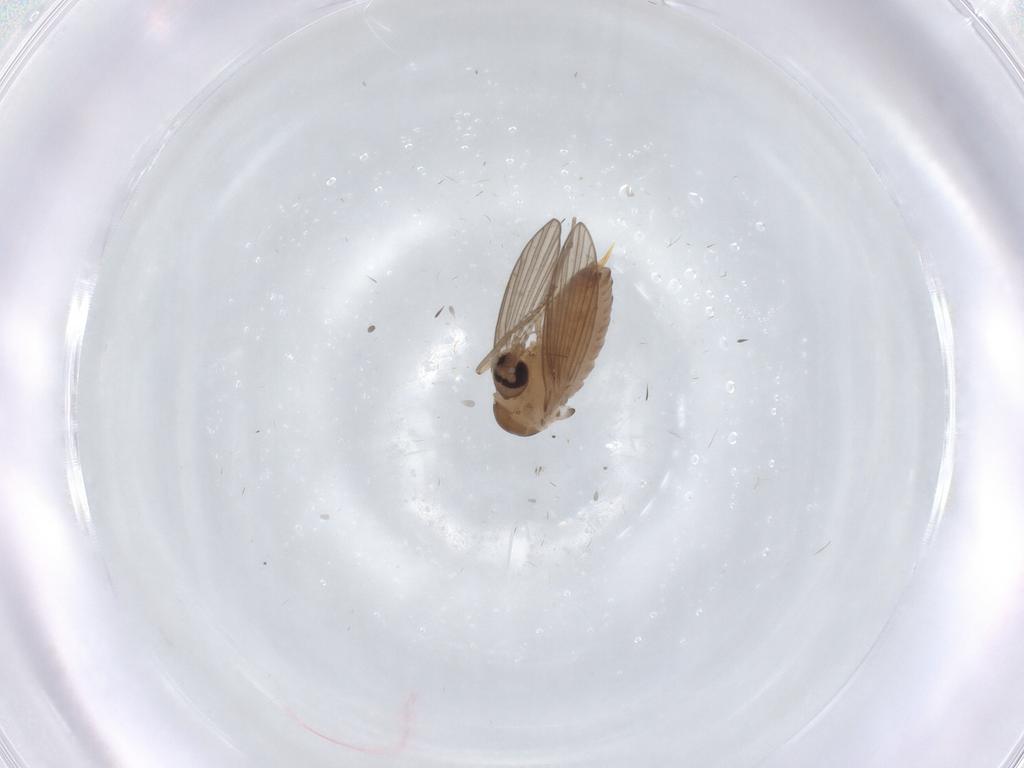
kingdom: Animalia
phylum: Arthropoda
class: Insecta
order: Diptera
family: Psychodidae
